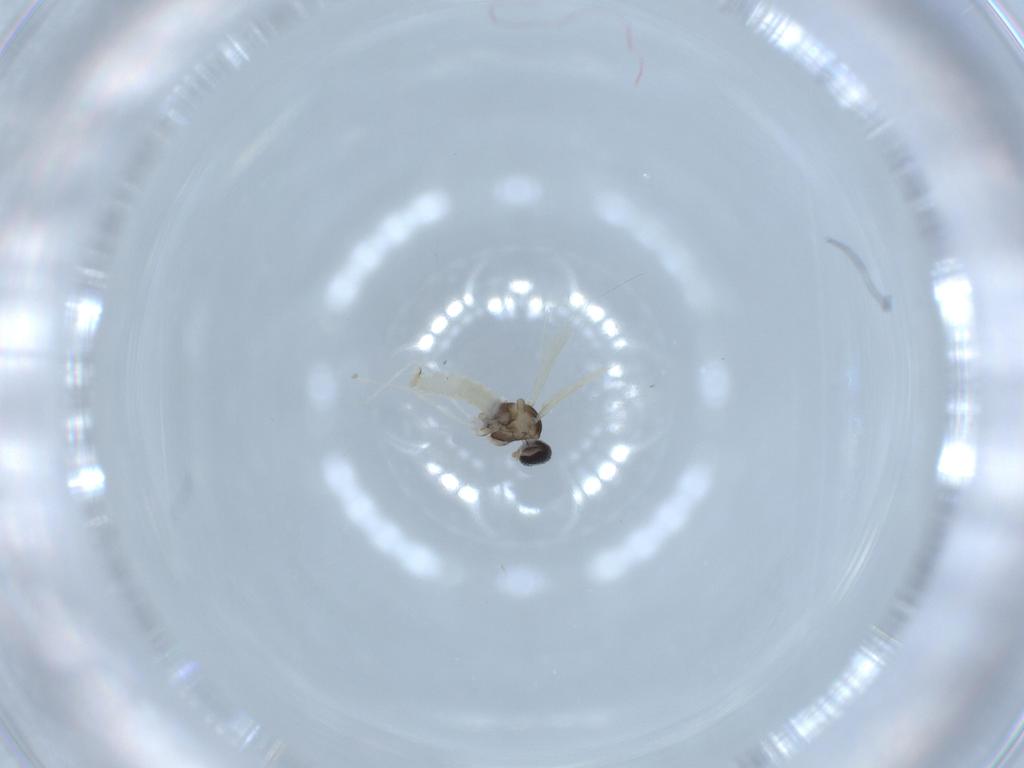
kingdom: Animalia
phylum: Arthropoda
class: Insecta
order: Diptera
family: Cecidomyiidae
